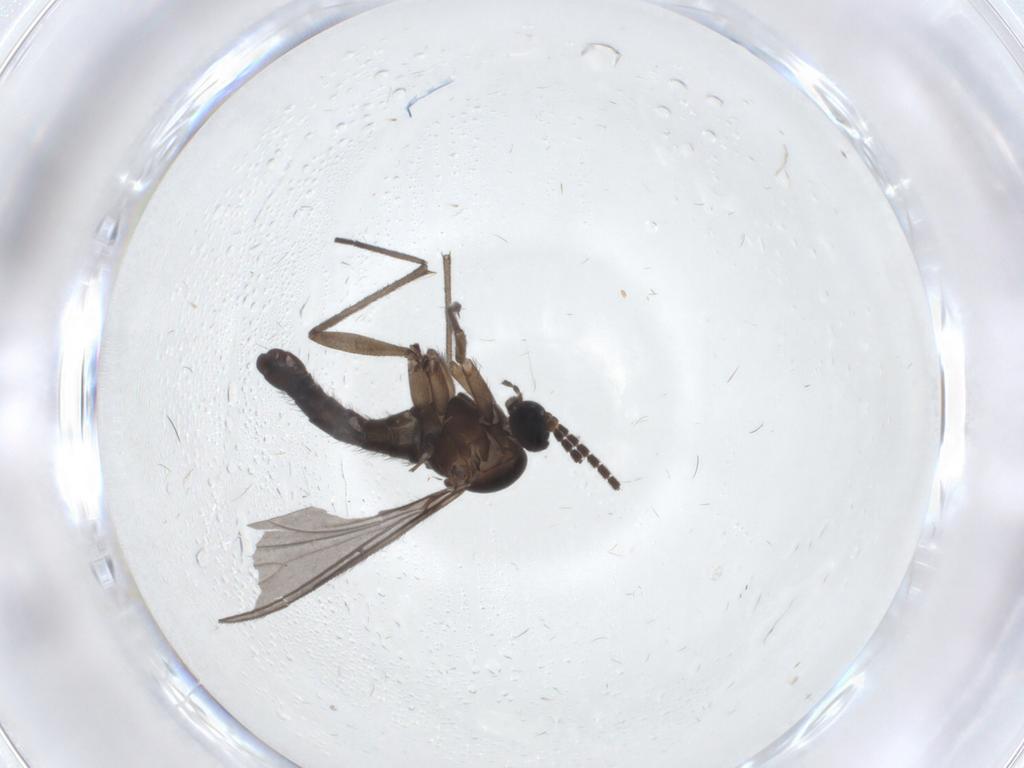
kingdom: Animalia
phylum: Arthropoda
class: Insecta
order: Diptera
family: Sciaridae
